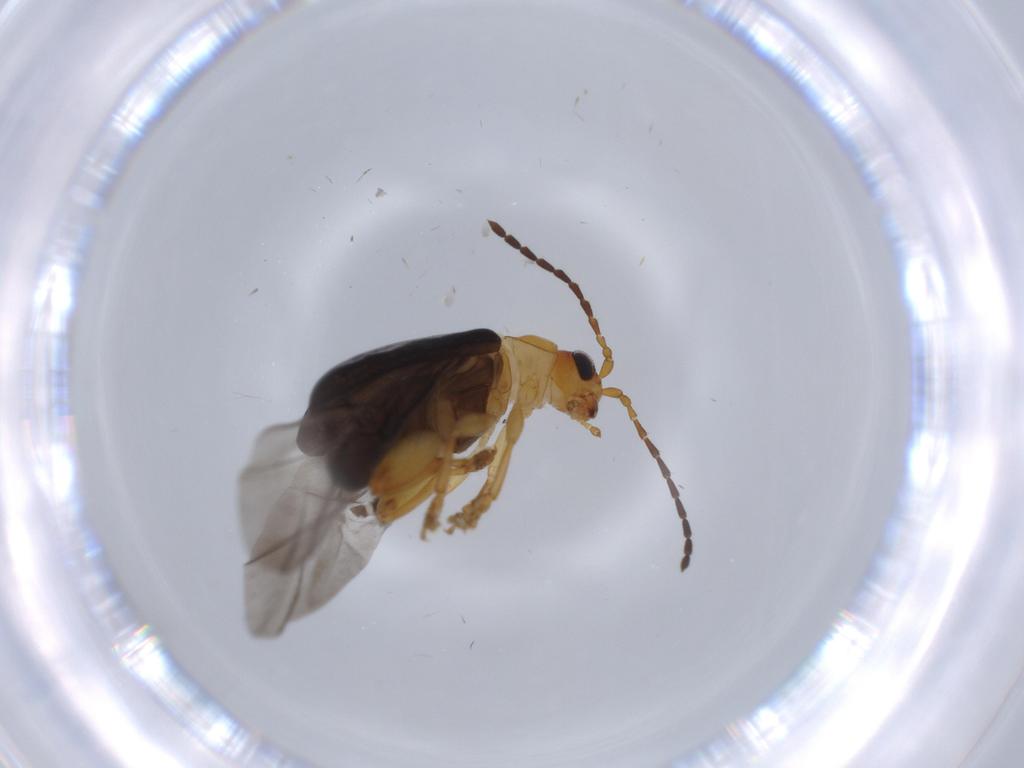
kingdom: Animalia
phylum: Arthropoda
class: Insecta
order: Coleoptera
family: Chrysomelidae
